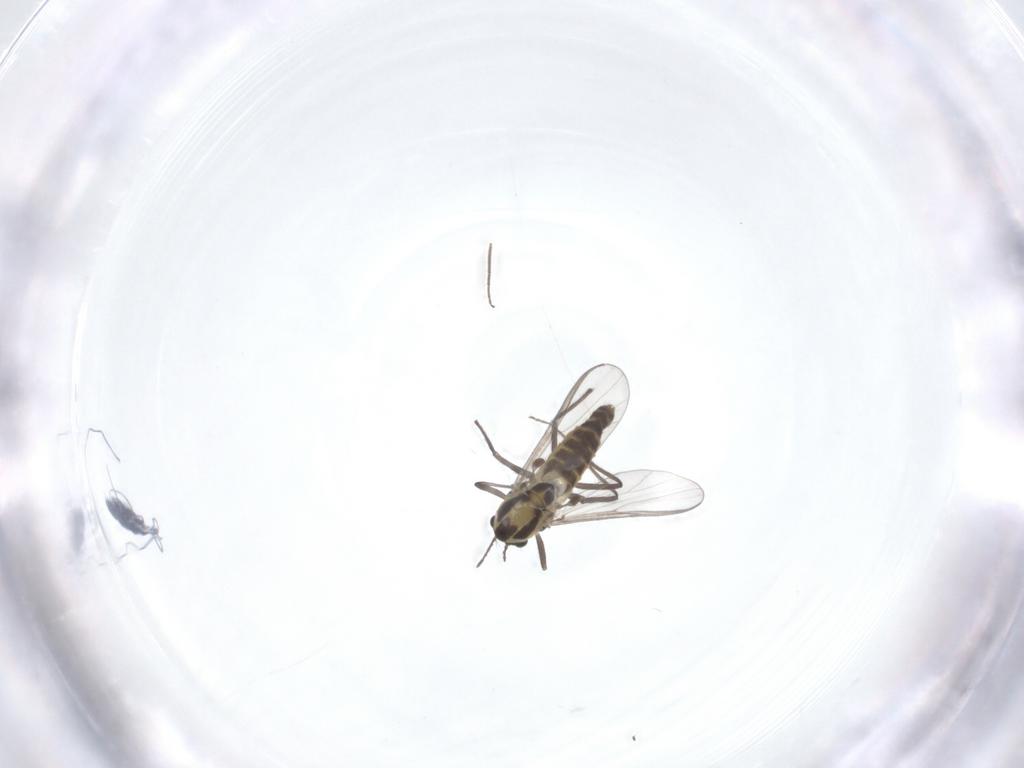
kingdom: Animalia
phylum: Arthropoda
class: Insecta
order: Diptera
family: Chironomidae
